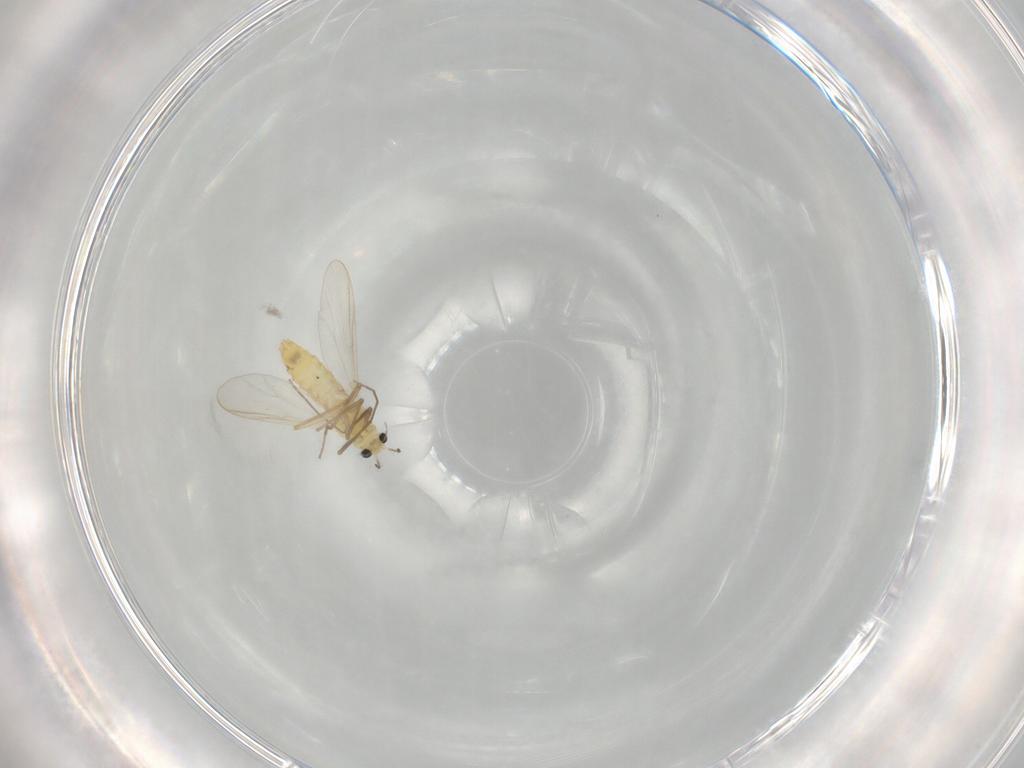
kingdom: Animalia
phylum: Arthropoda
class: Insecta
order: Diptera
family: Chironomidae
